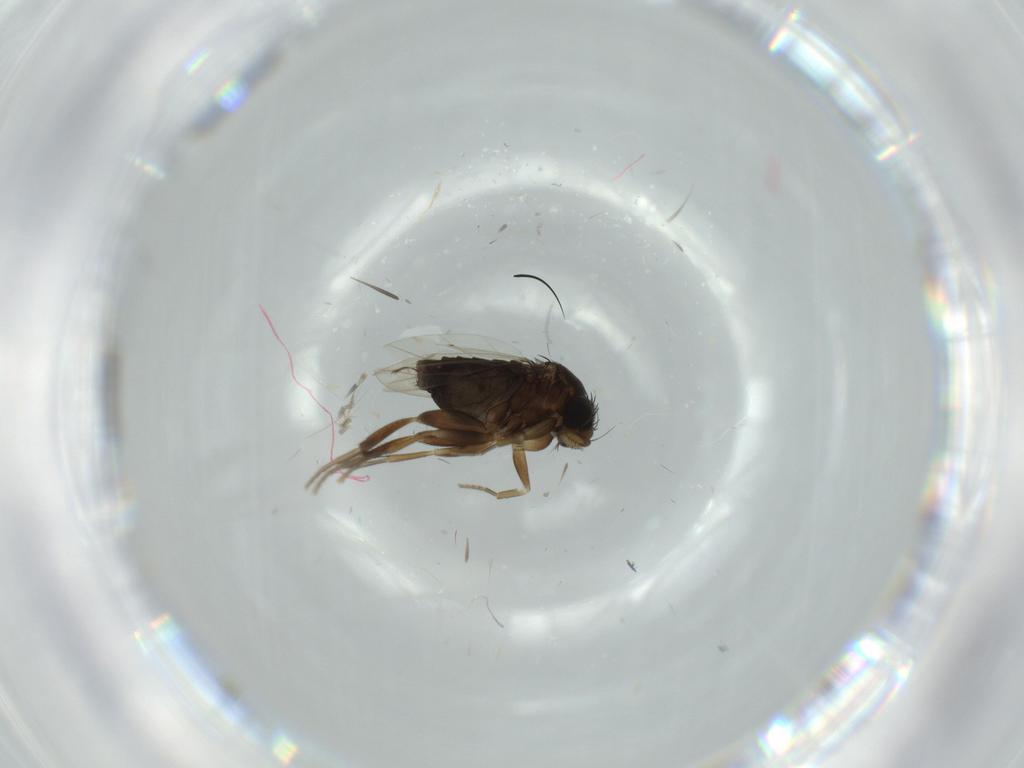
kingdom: Animalia
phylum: Arthropoda
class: Insecta
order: Diptera
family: Phoridae
